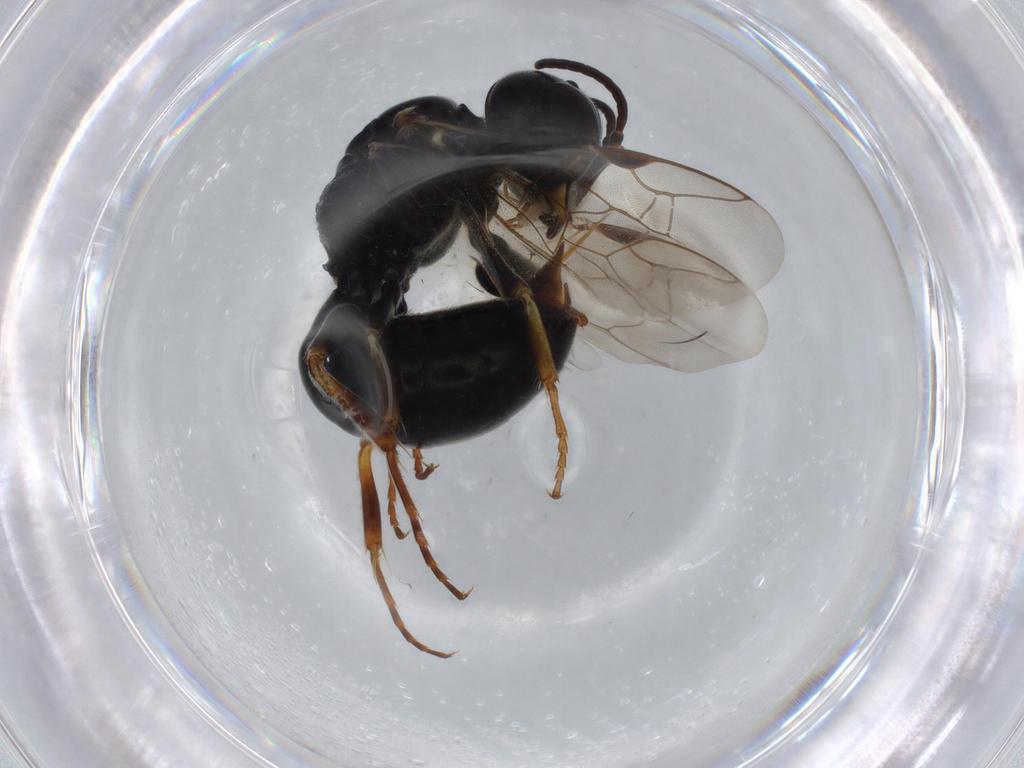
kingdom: Animalia
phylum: Arthropoda
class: Insecta
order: Hymenoptera
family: Crabronidae
